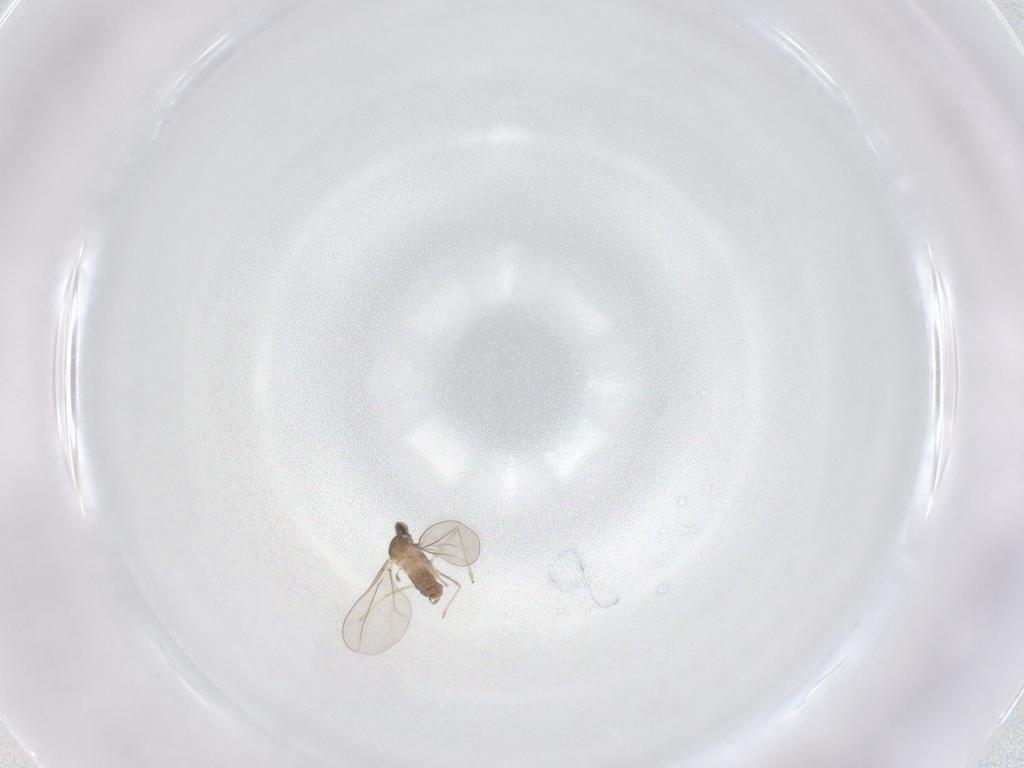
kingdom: Animalia
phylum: Arthropoda
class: Insecta
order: Diptera
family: Cecidomyiidae
